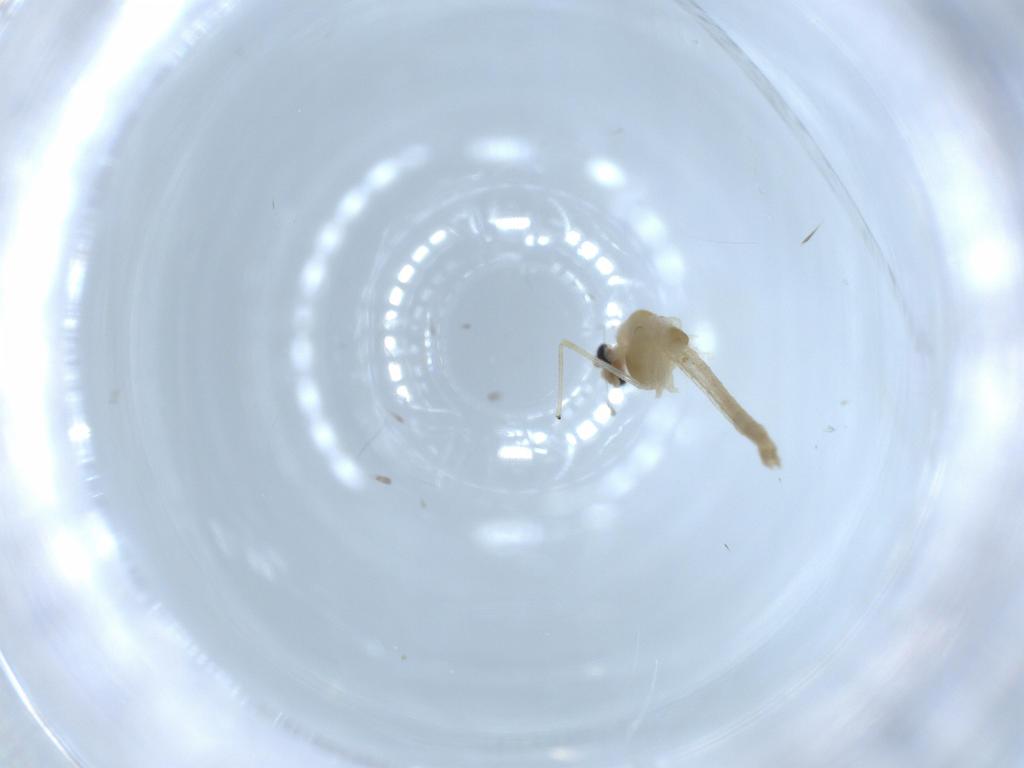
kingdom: Animalia
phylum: Arthropoda
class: Insecta
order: Diptera
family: Chironomidae
